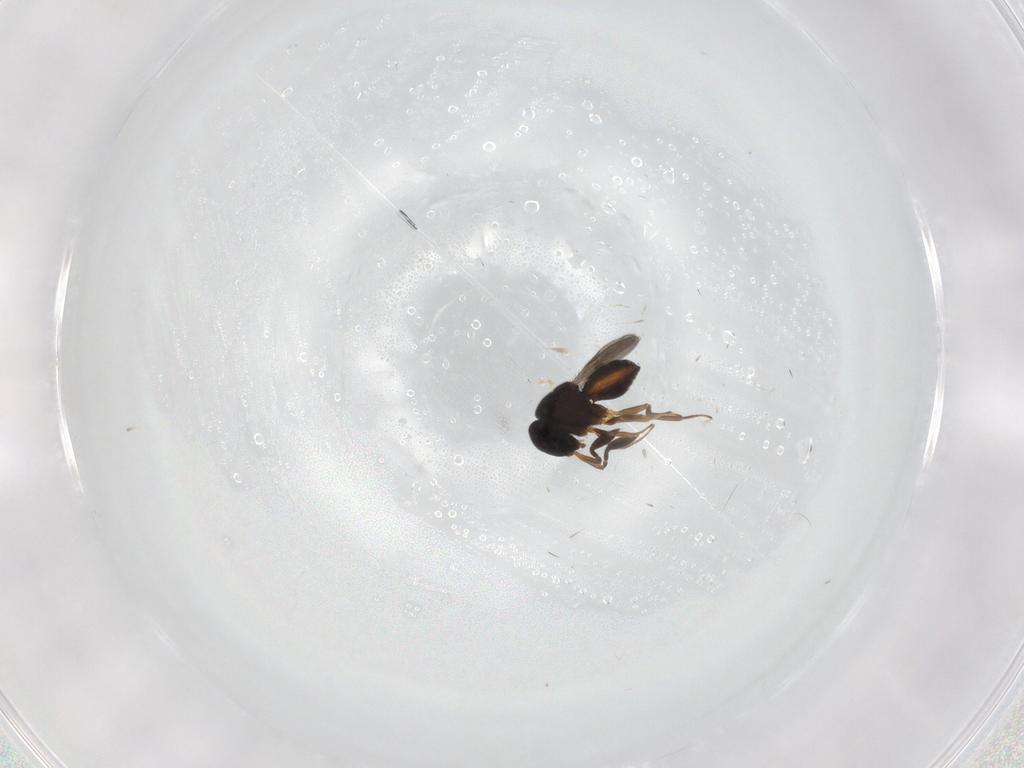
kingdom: Animalia
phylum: Arthropoda
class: Insecta
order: Hymenoptera
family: Scelionidae
